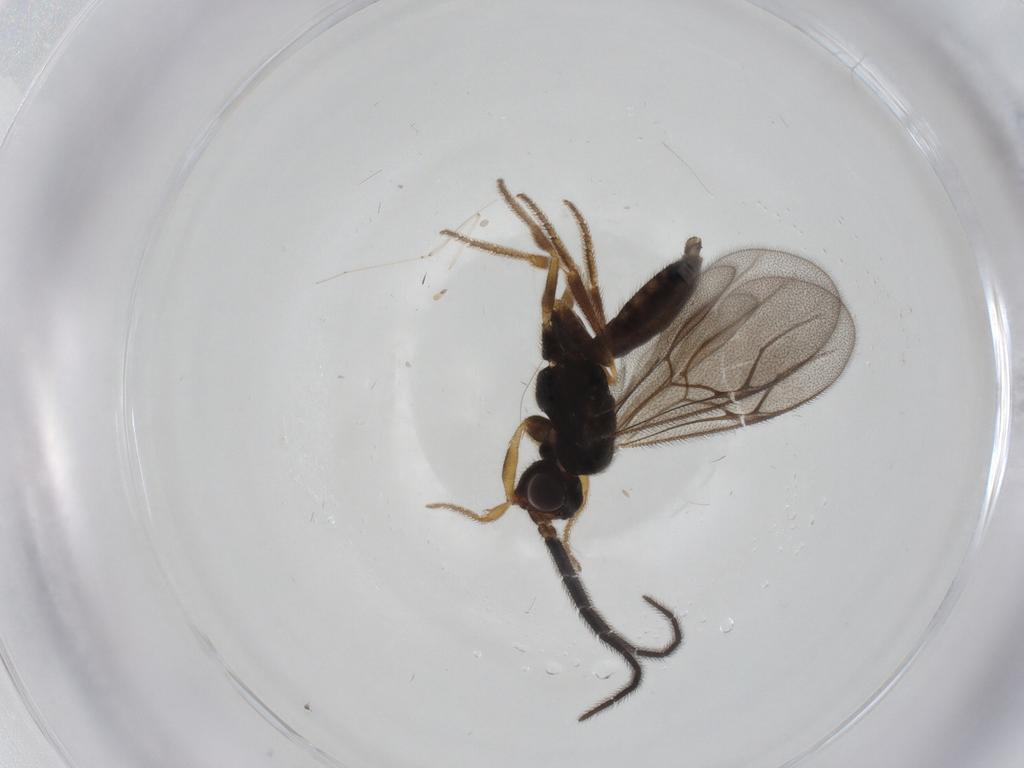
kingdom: Animalia
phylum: Arthropoda
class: Insecta
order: Hymenoptera
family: Dryinidae
